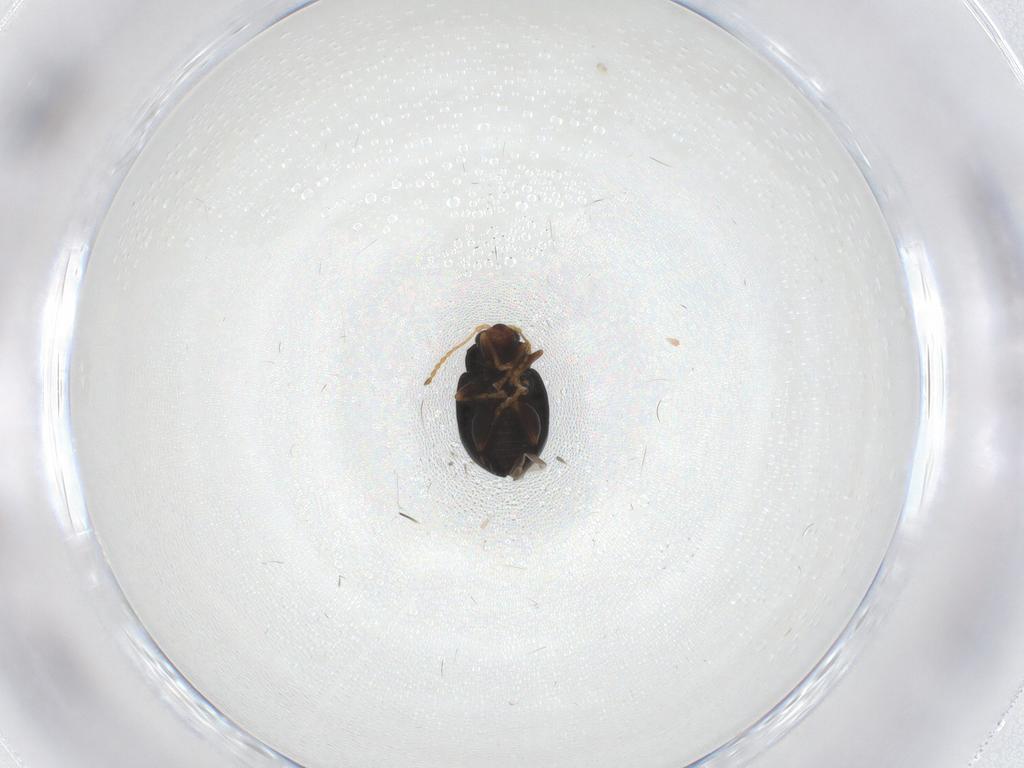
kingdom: Animalia
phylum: Arthropoda
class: Insecta
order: Coleoptera
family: Chrysomelidae
